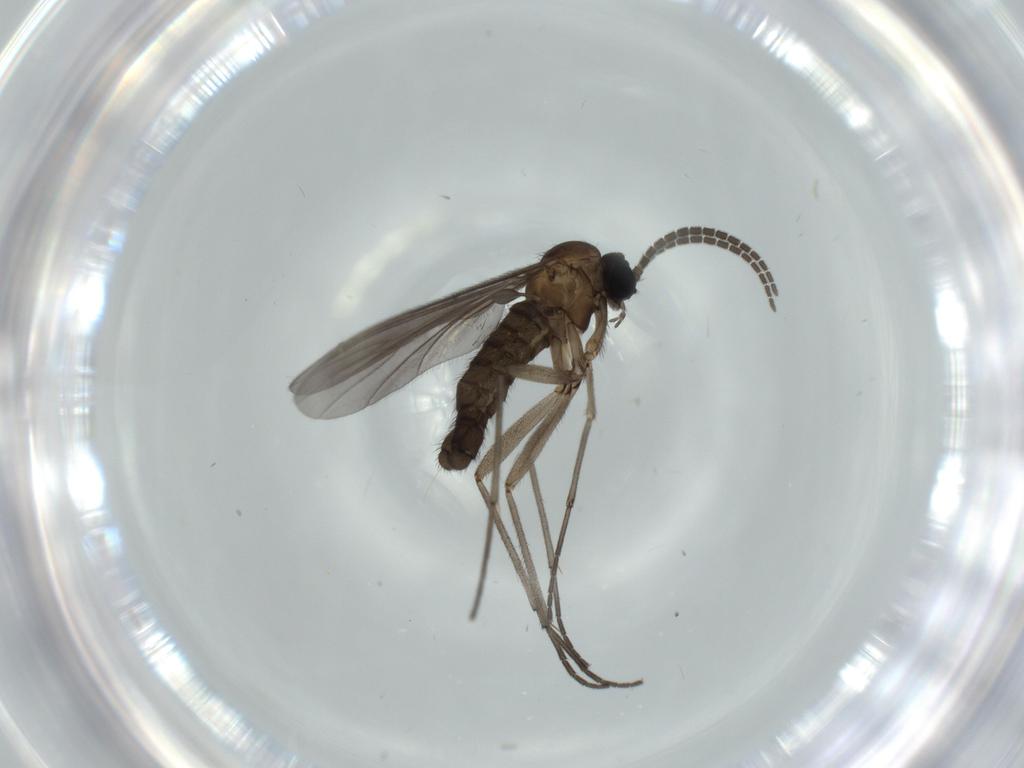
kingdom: Animalia
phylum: Arthropoda
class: Insecta
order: Diptera
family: Sciaridae
